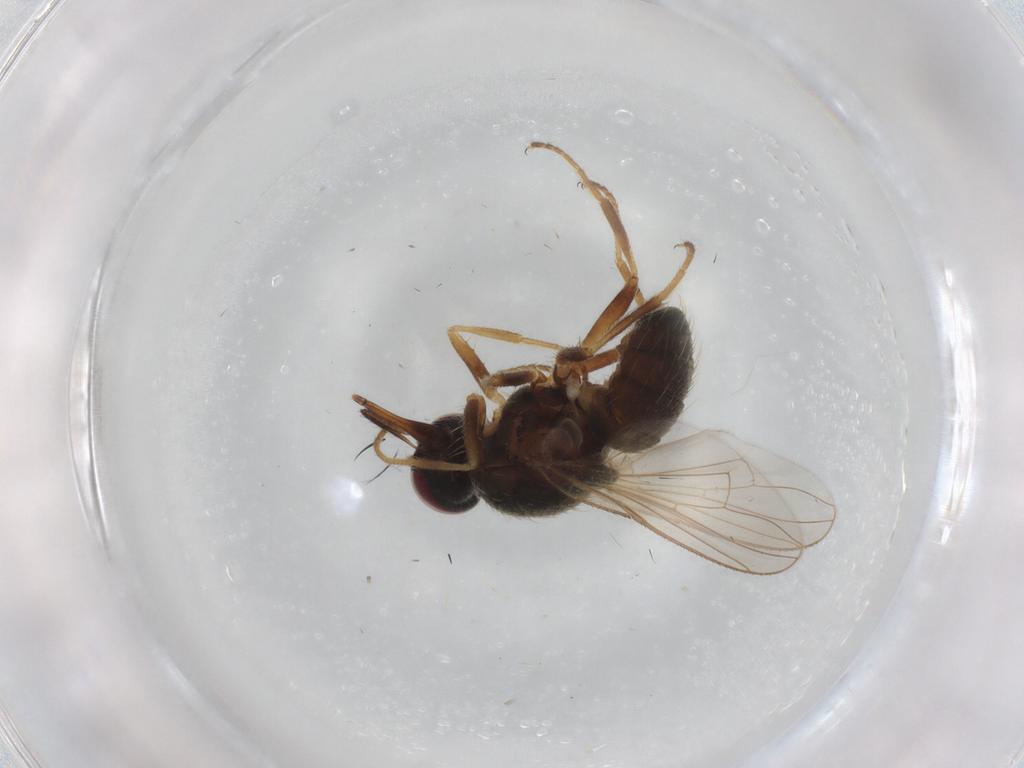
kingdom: Animalia
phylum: Arthropoda
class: Insecta
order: Diptera
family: Muscidae
